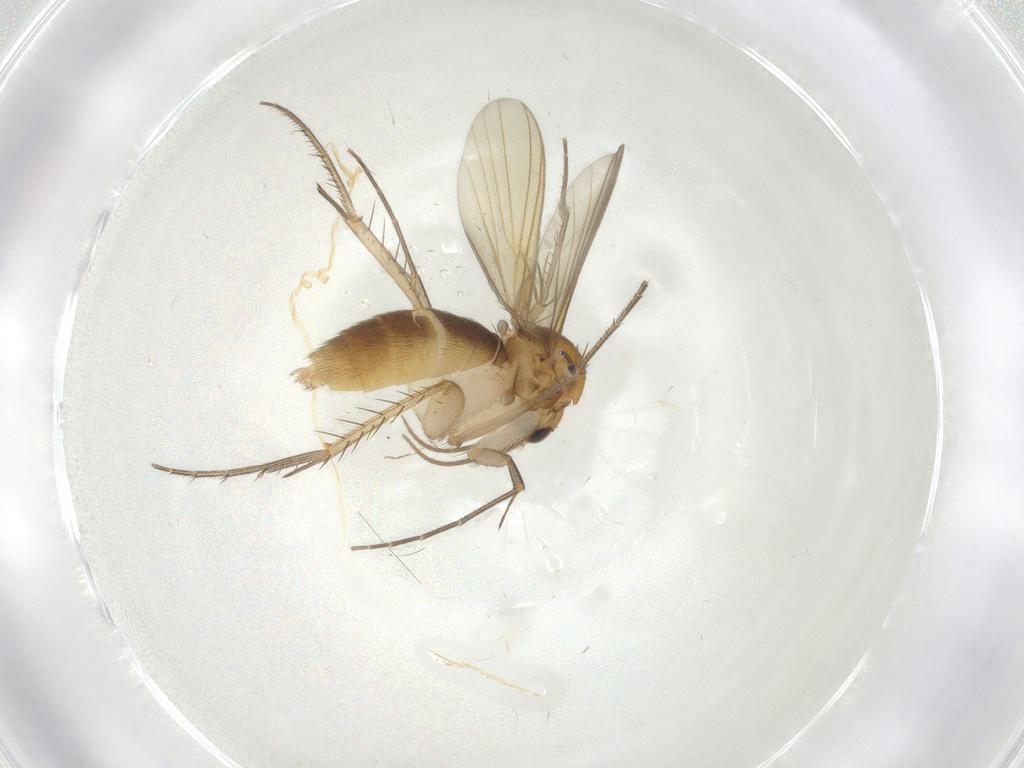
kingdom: Animalia
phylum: Arthropoda
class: Insecta
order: Diptera
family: Mycetophilidae
